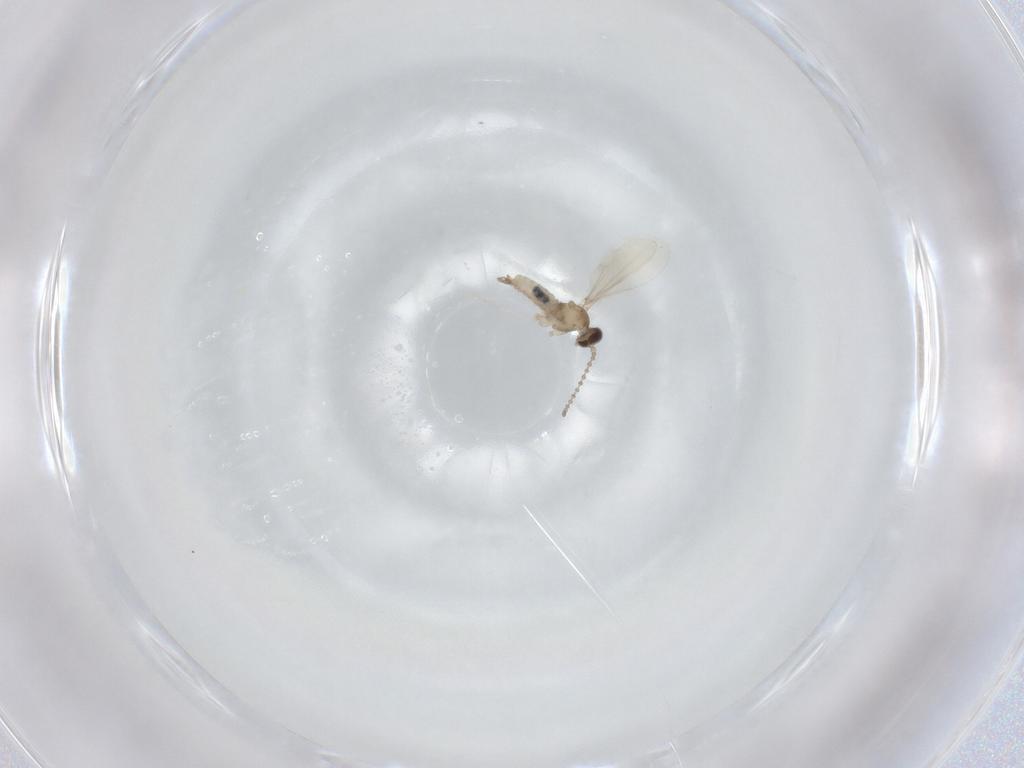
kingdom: Animalia
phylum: Arthropoda
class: Insecta
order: Diptera
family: Cecidomyiidae
